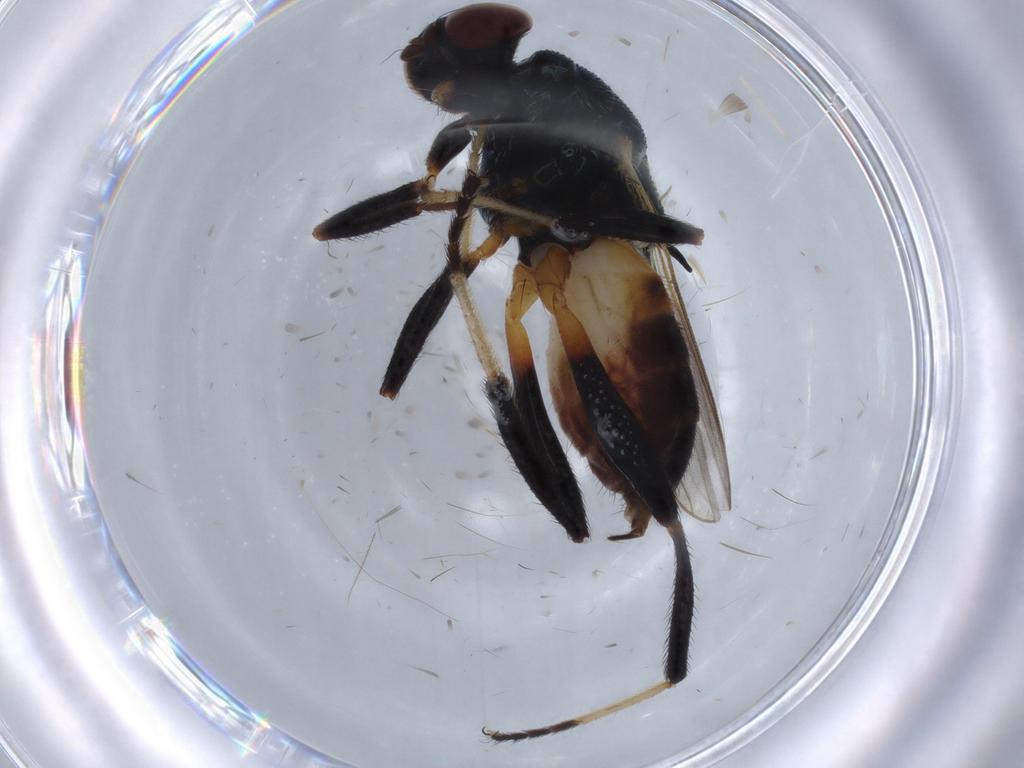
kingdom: Animalia
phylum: Arthropoda
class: Insecta
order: Diptera
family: Chloropidae
